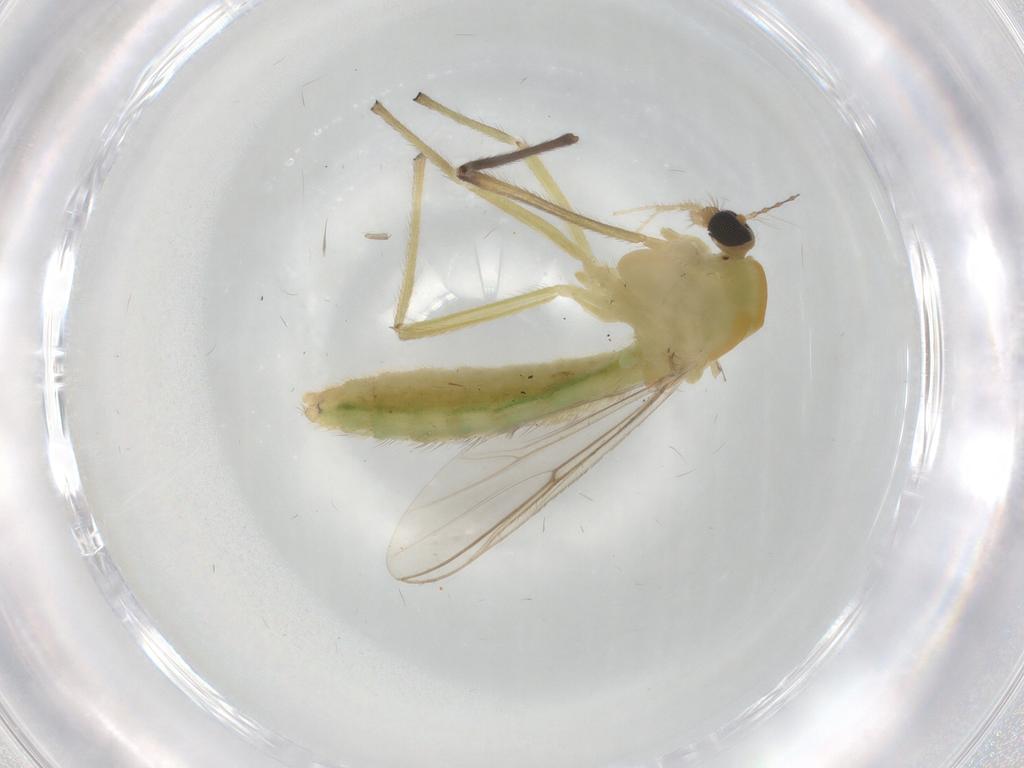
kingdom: Animalia
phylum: Arthropoda
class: Insecta
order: Diptera
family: Chironomidae
